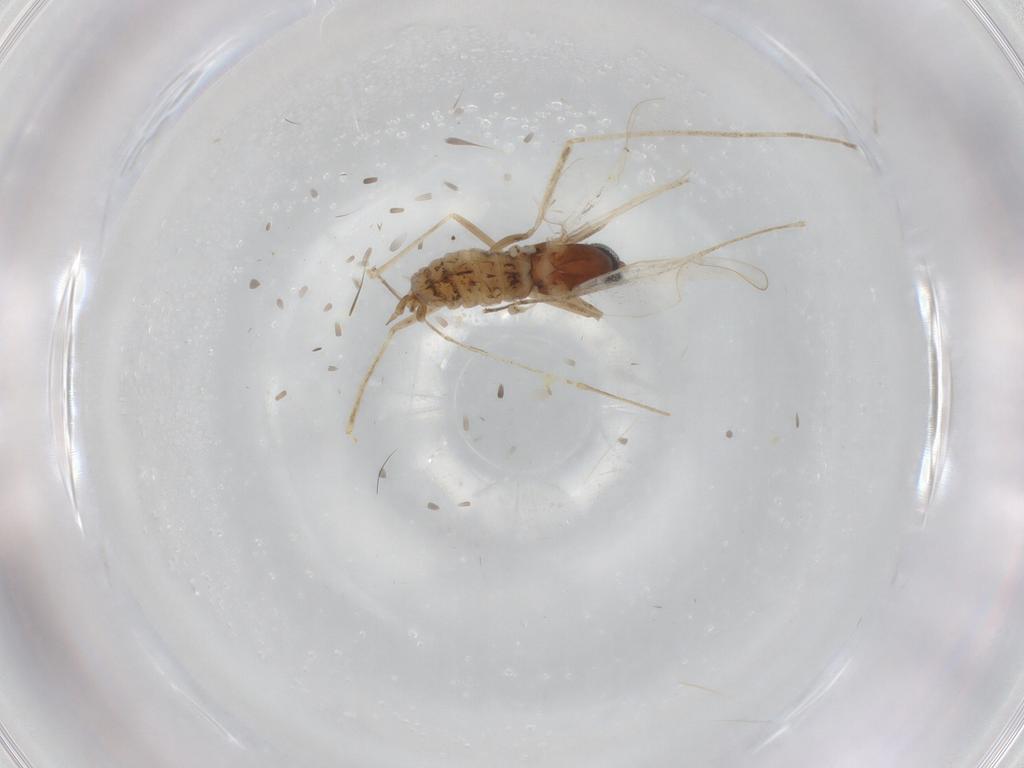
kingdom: Animalia
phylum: Arthropoda
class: Insecta
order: Diptera
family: Cecidomyiidae
